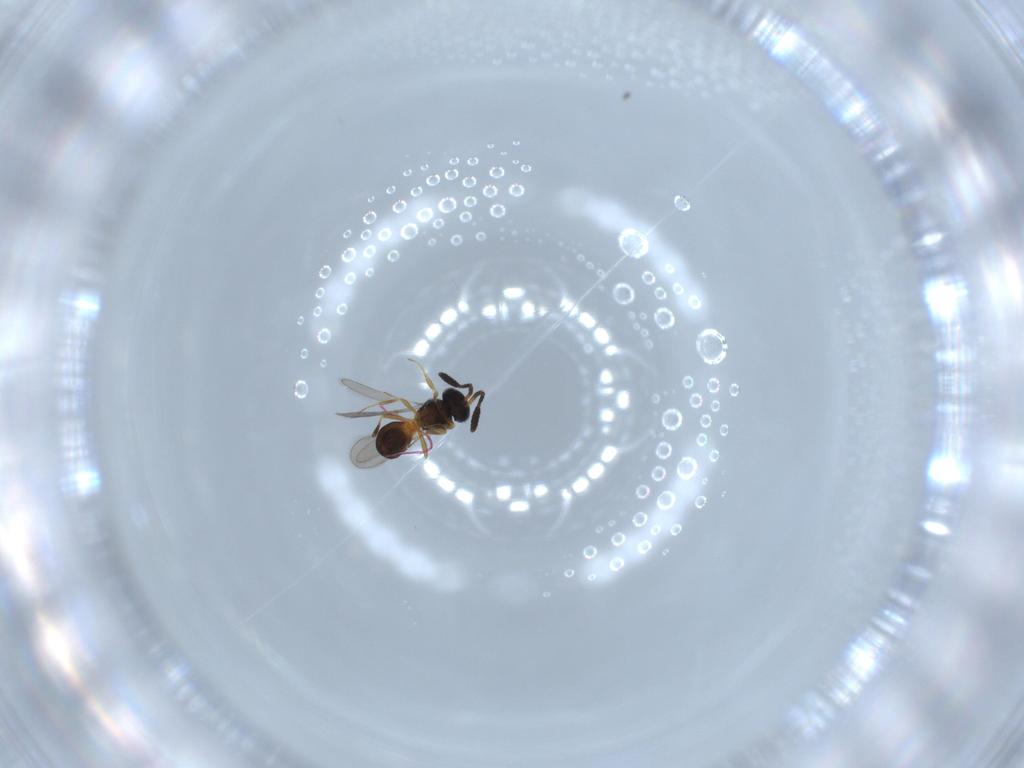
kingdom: Animalia
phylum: Arthropoda
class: Insecta
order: Hymenoptera
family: Scelionidae
